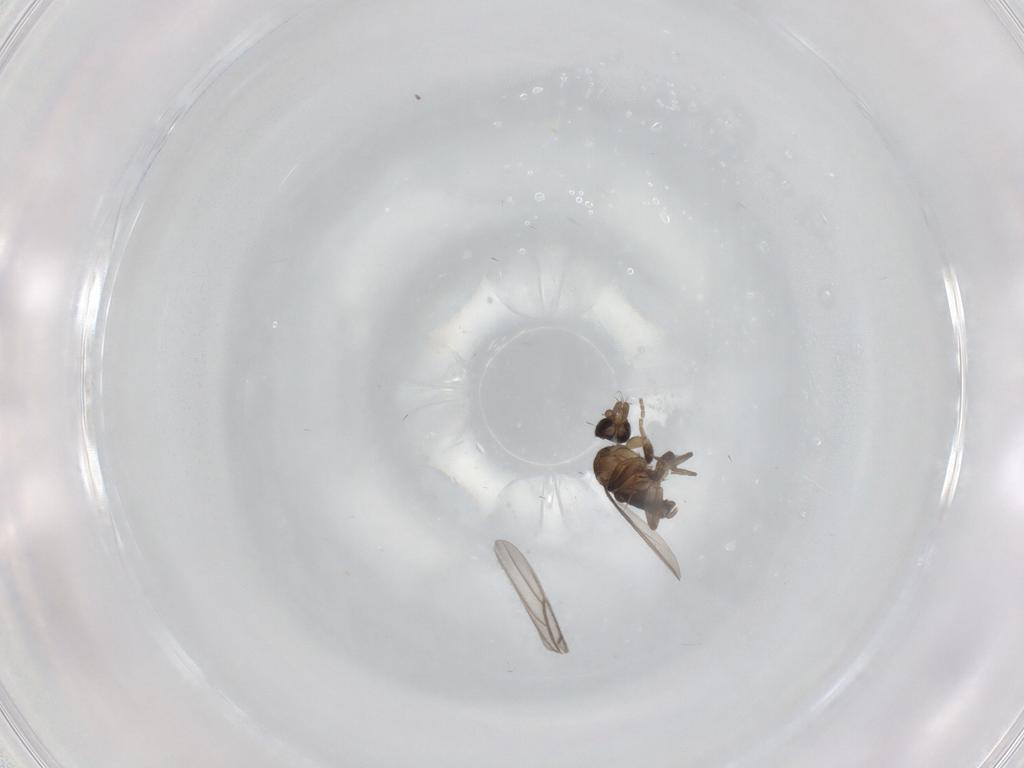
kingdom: Animalia
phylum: Arthropoda
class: Insecta
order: Diptera
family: Phoridae
